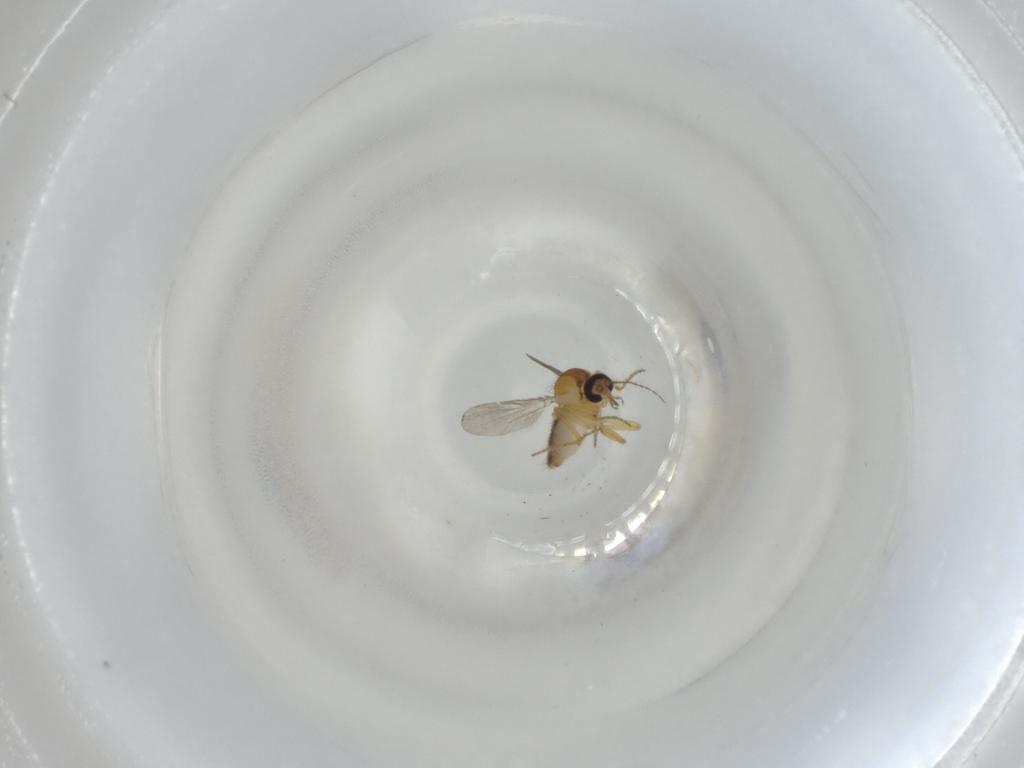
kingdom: Animalia
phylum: Arthropoda
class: Insecta
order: Diptera
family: Ceratopogonidae
